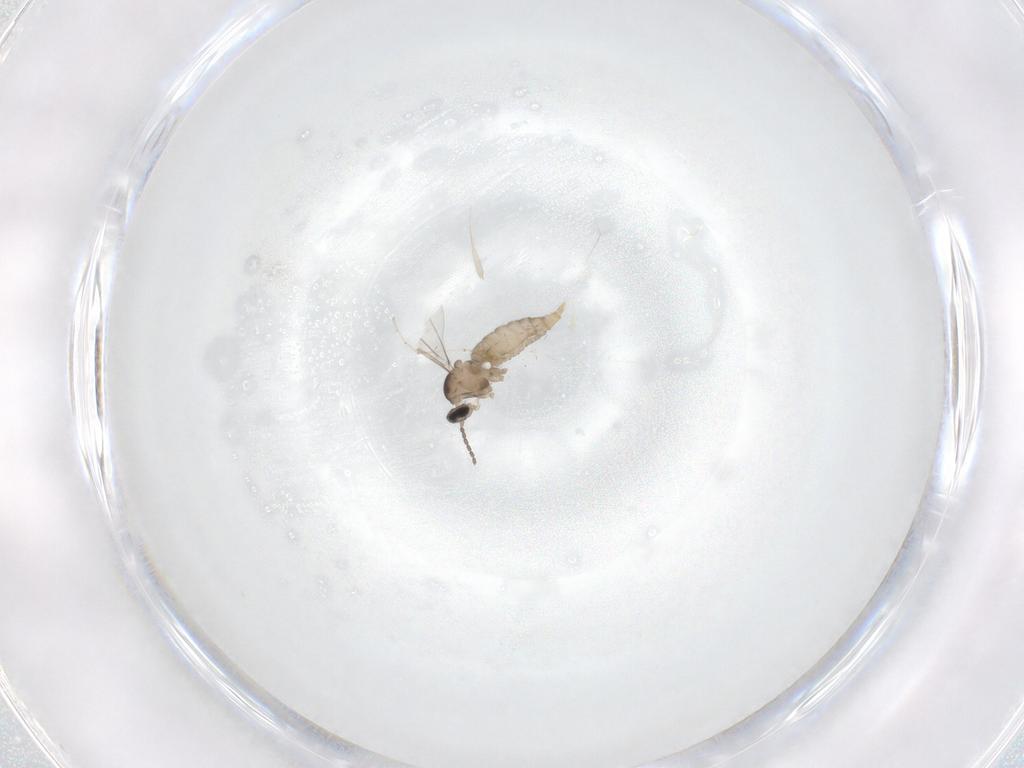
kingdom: Animalia
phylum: Arthropoda
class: Insecta
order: Diptera
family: Cecidomyiidae
